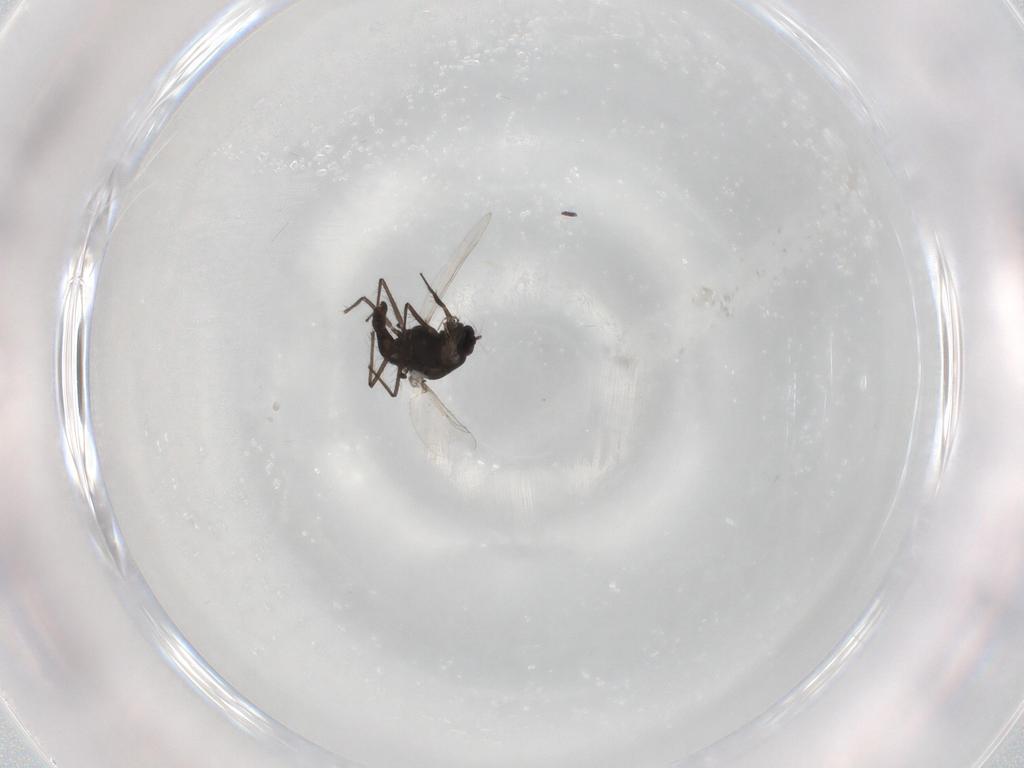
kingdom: Animalia
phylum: Arthropoda
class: Insecta
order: Diptera
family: Chironomidae
